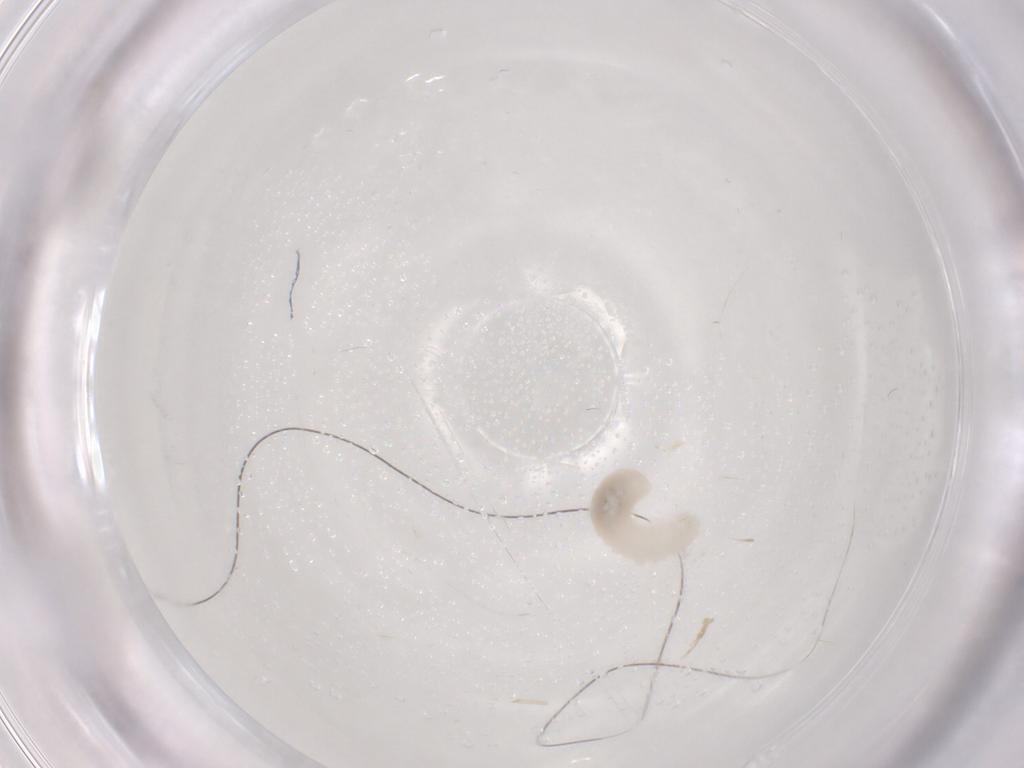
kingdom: Animalia
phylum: Arthropoda
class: Insecta
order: Hymenoptera
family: Formicidae
